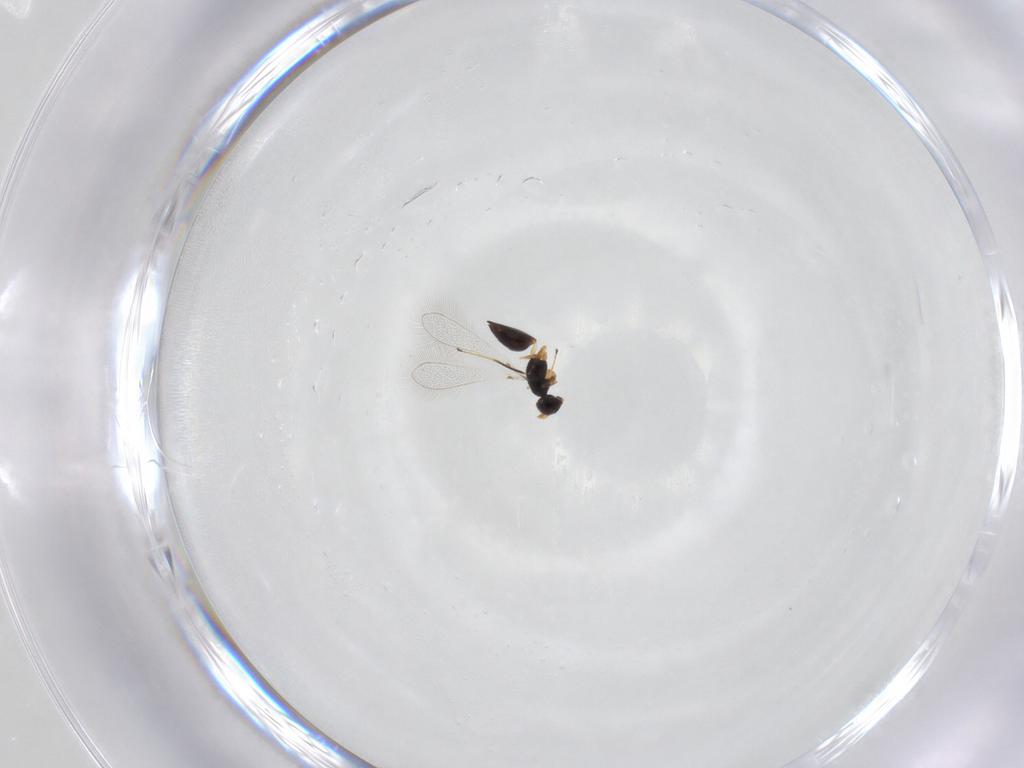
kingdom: Animalia
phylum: Arthropoda
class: Insecta
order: Hymenoptera
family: Mymaridae
